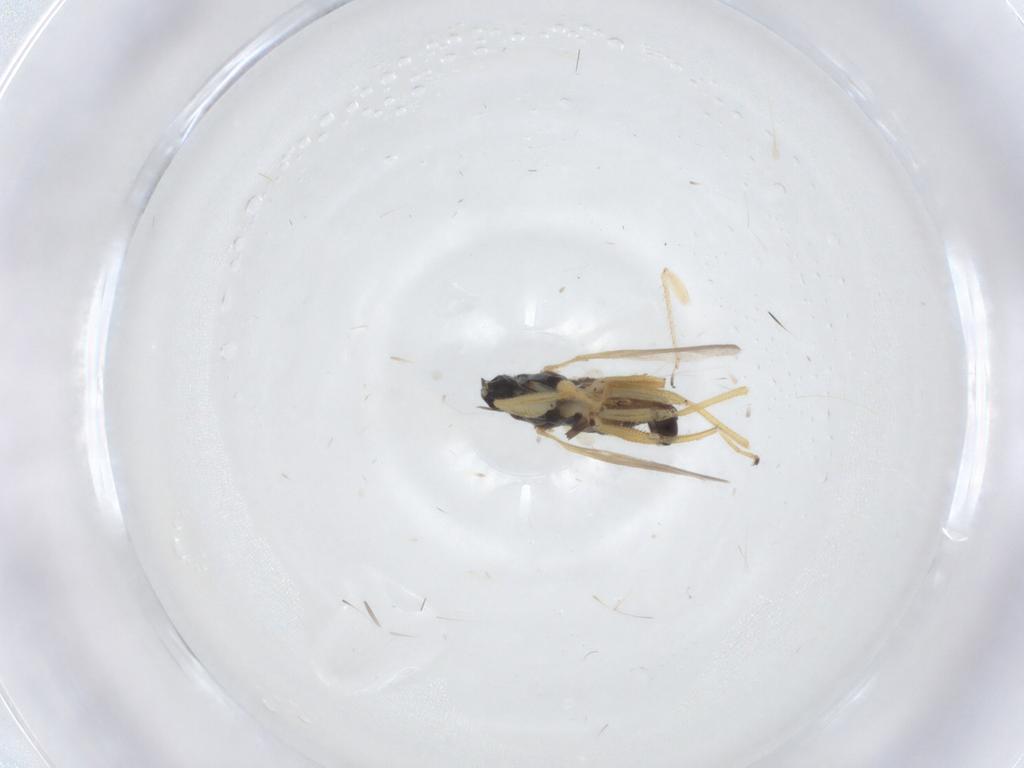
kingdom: Animalia
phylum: Arthropoda
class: Insecta
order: Diptera
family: Hybotidae
